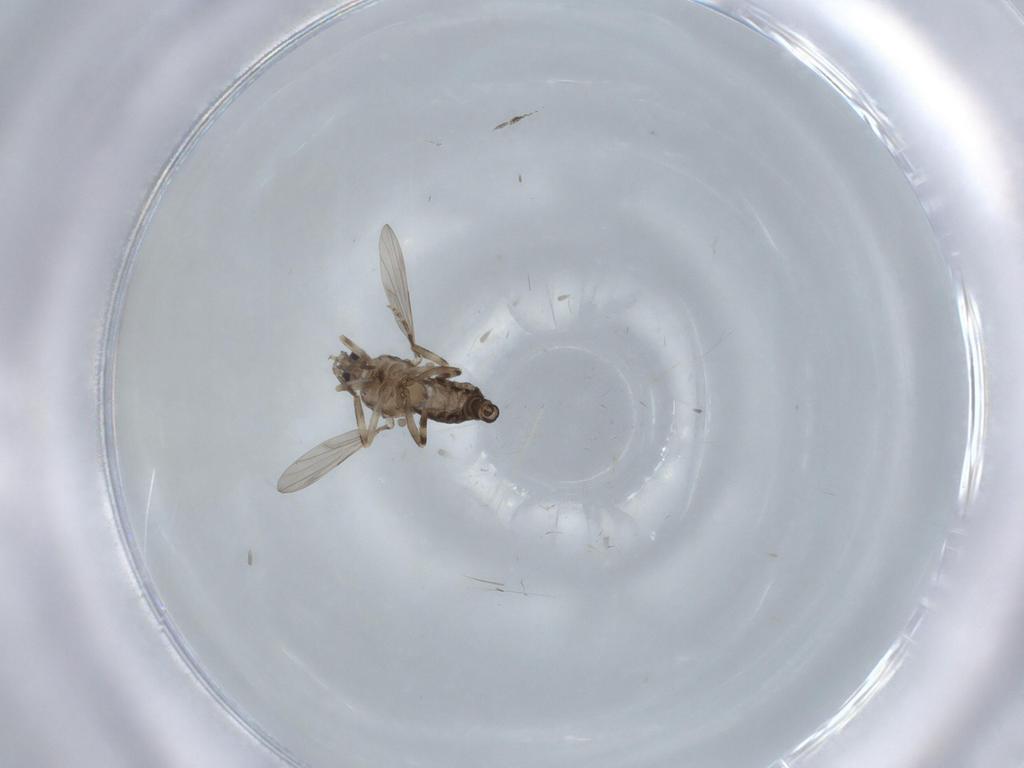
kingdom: Animalia
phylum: Arthropoda
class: Insecta
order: Diptera
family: Ceratopogonidae
